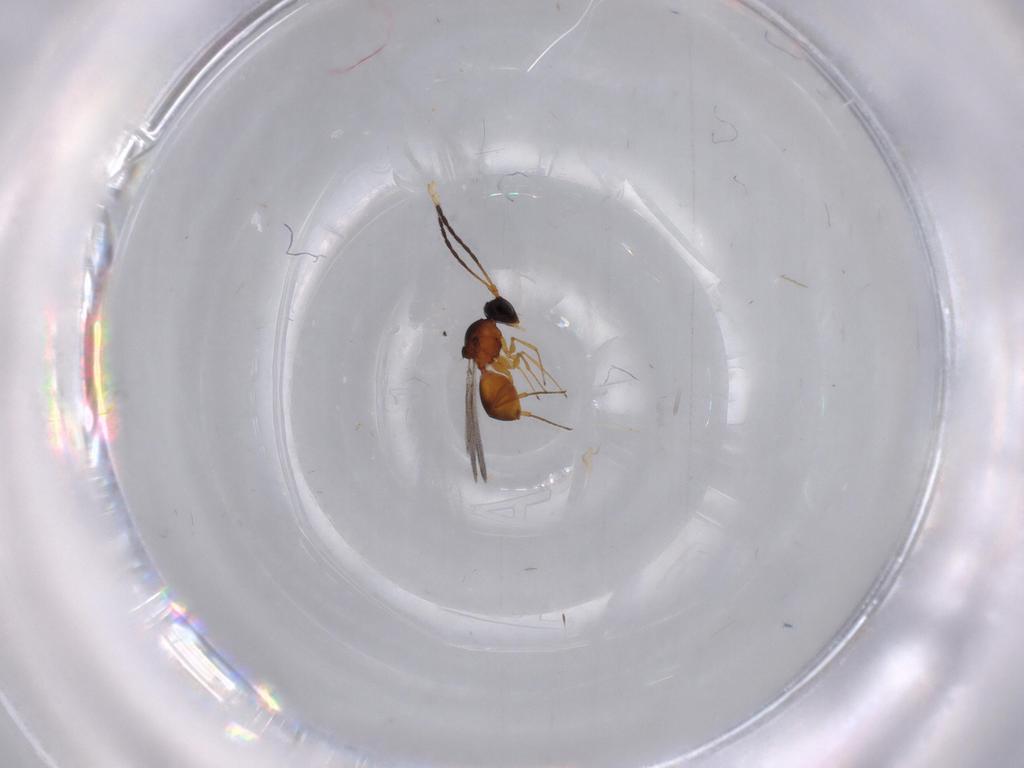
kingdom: Animalia
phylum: Arthropoda
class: Insecta
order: Hymenoptera
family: Figitidae
